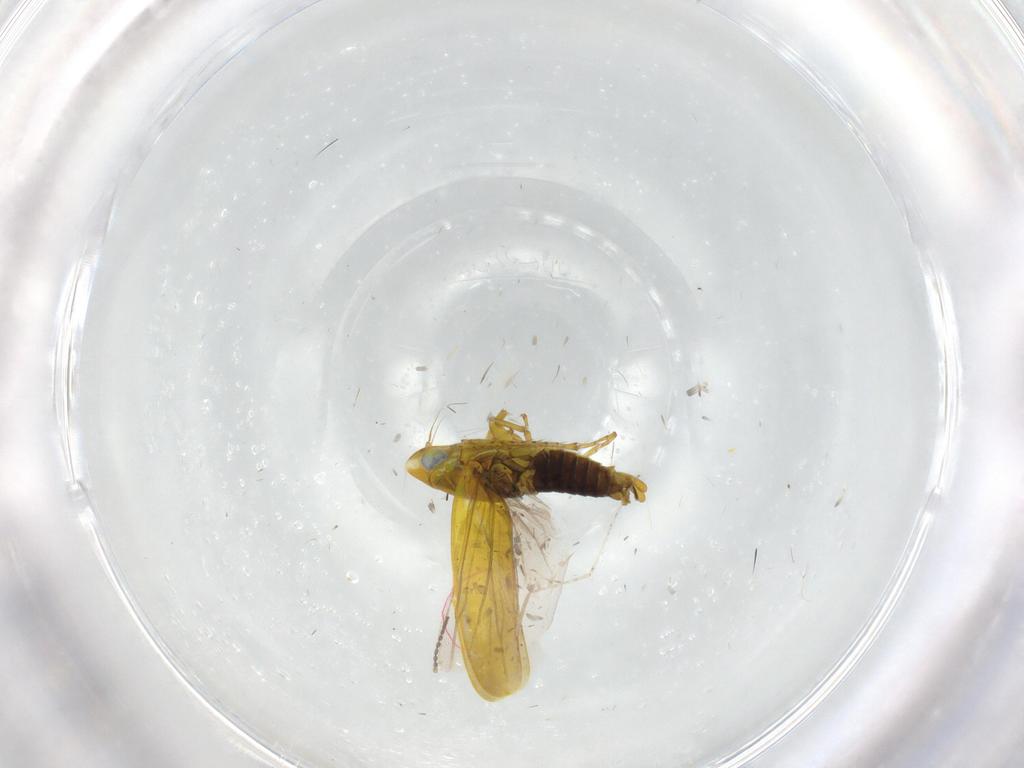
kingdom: Animalia
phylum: Arthropoda
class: Insecta
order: Hemiptera
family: Cicadellidae
